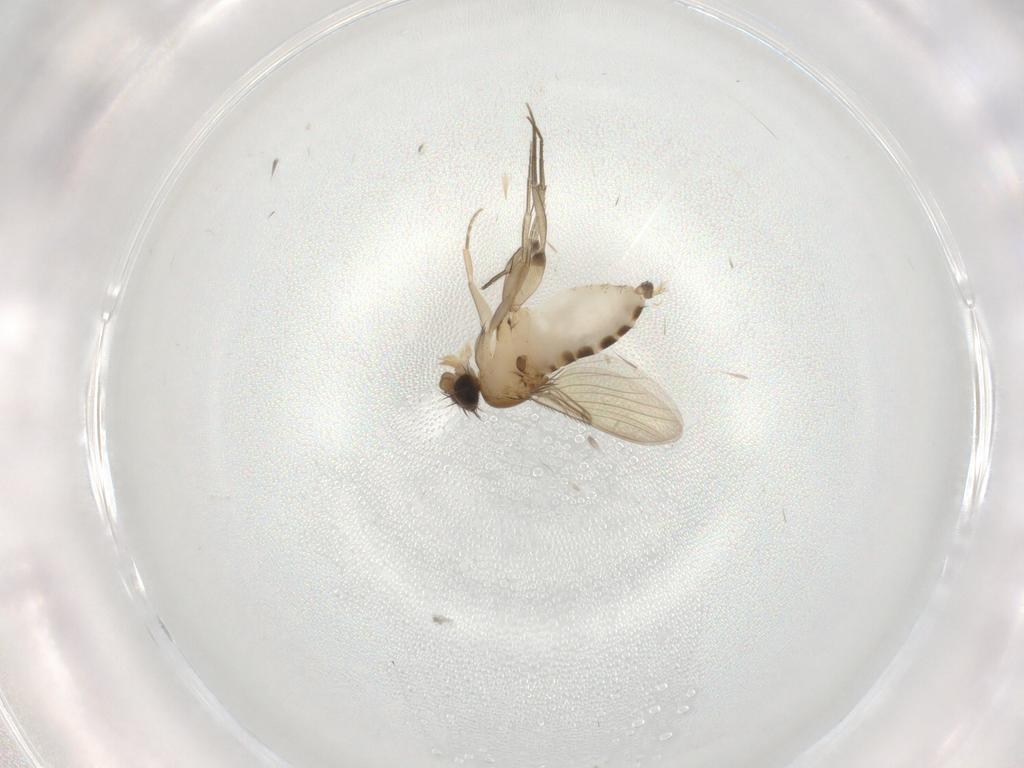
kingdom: Animalia
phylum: Arthropoda
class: Insecta
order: Diptera
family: Phoridae
